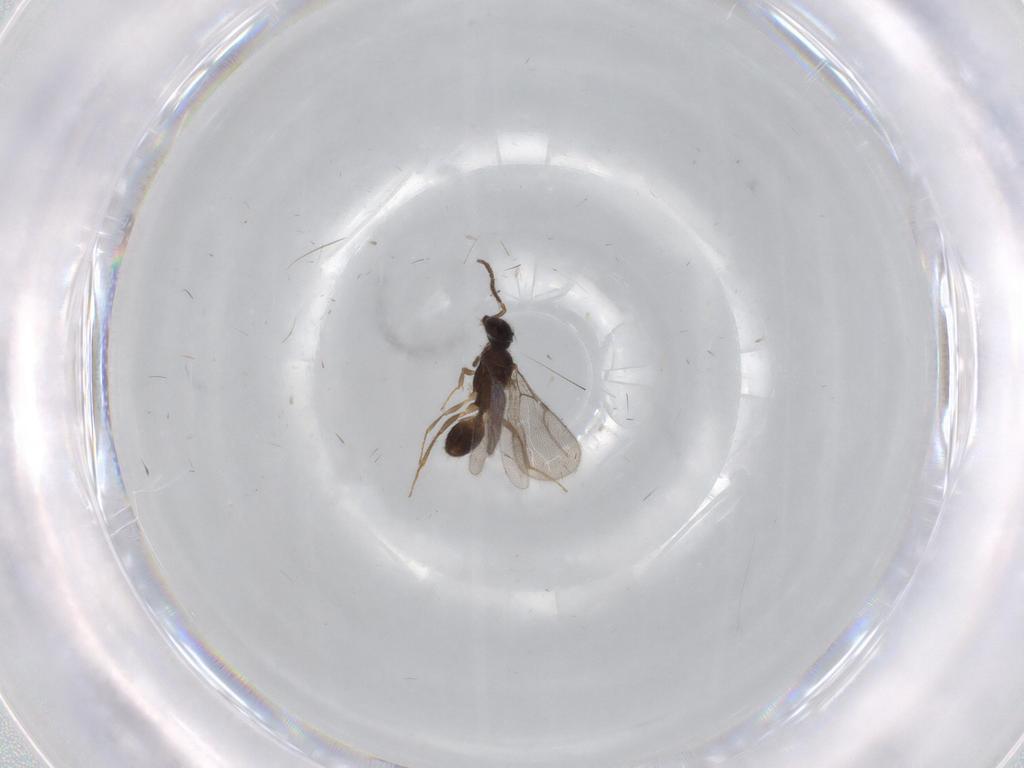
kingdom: Animalia
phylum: Arthropoda
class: Insecta
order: Hymenoptera
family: Bethylidae
